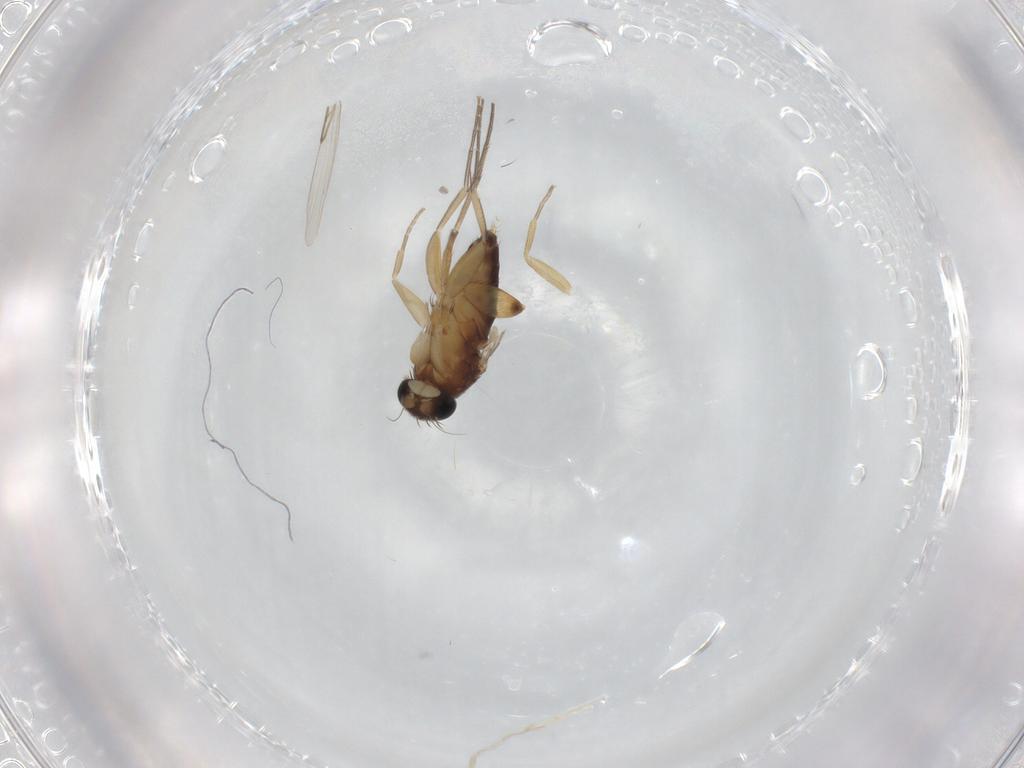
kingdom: Animalia
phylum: Arthropoda
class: Insecta
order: Diptera
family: Phoridae
